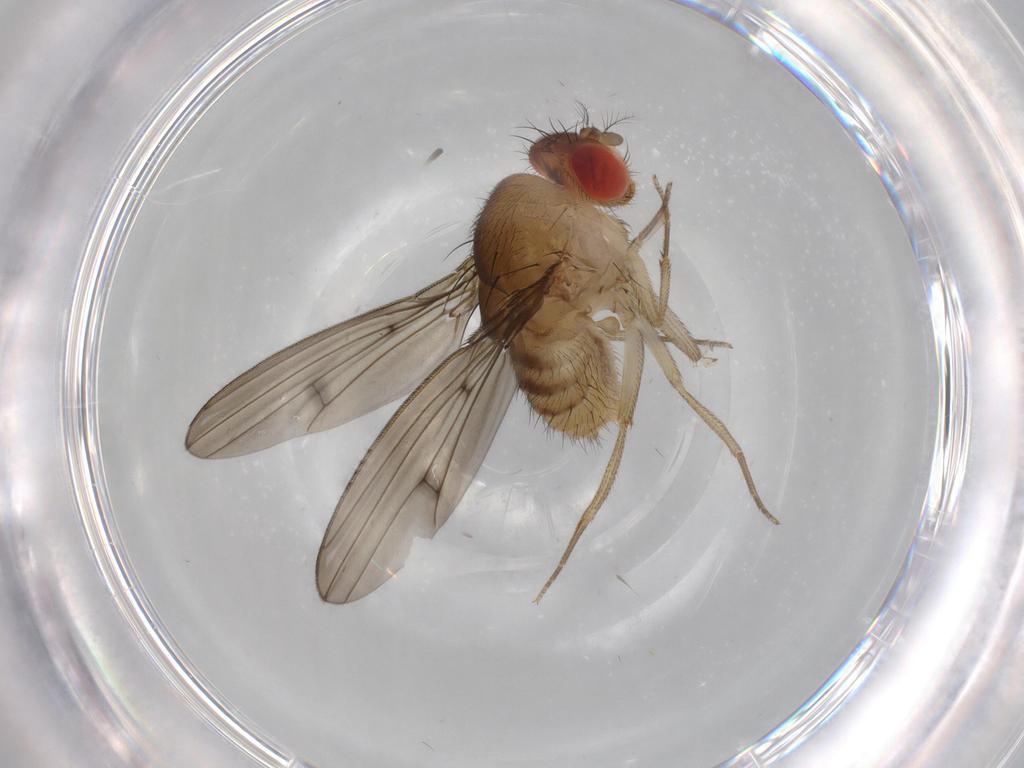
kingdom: Animalia
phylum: Arthropoda
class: Insecta
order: Diptera
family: Drosophilidae
